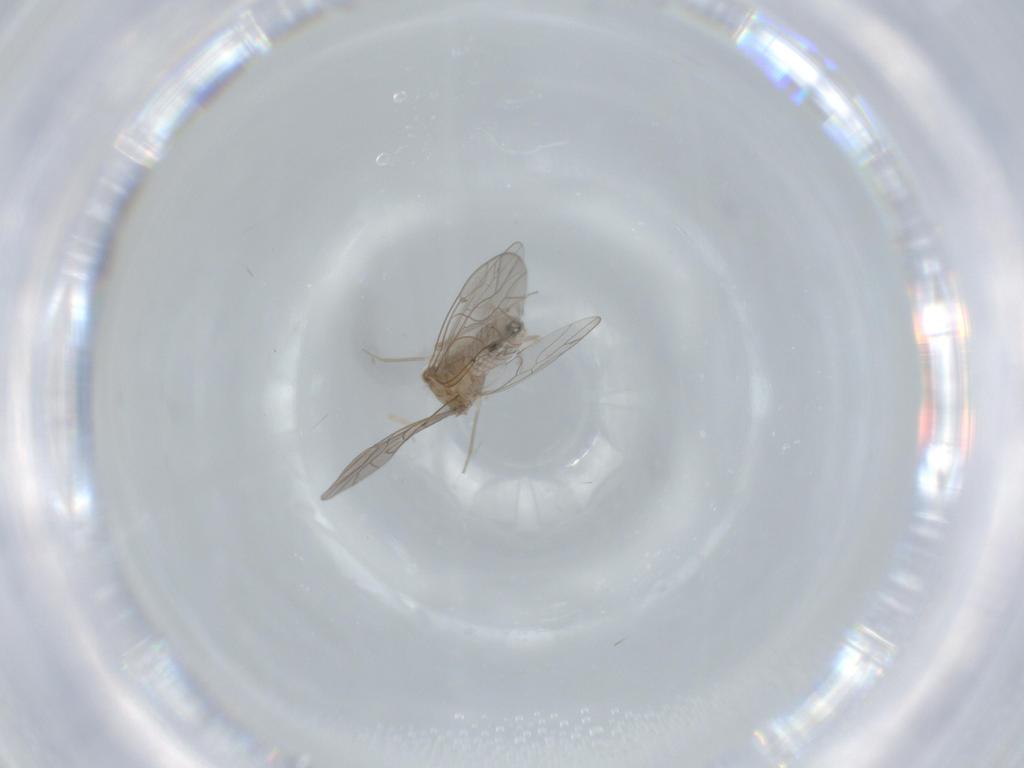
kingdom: Animalia
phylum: Arthropoda
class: Insecta
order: Psocodea
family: Lachesillidae
